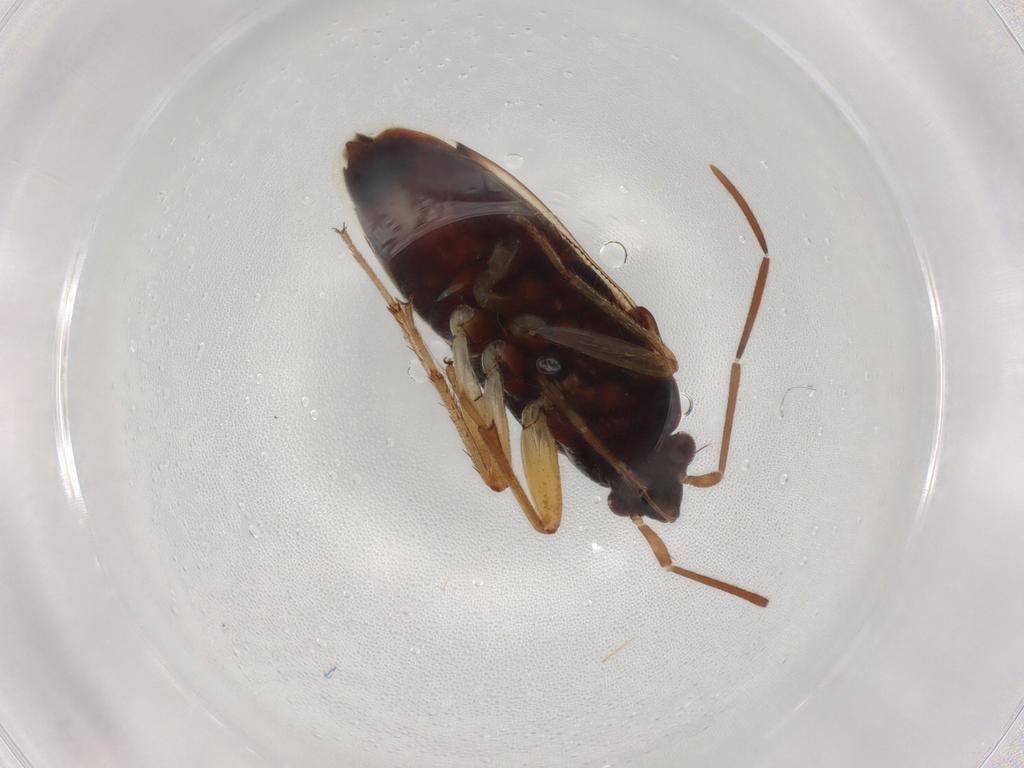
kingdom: Animalia
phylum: Arthropoda
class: Insecta
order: Hemiptera
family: Rhyparochromidae
